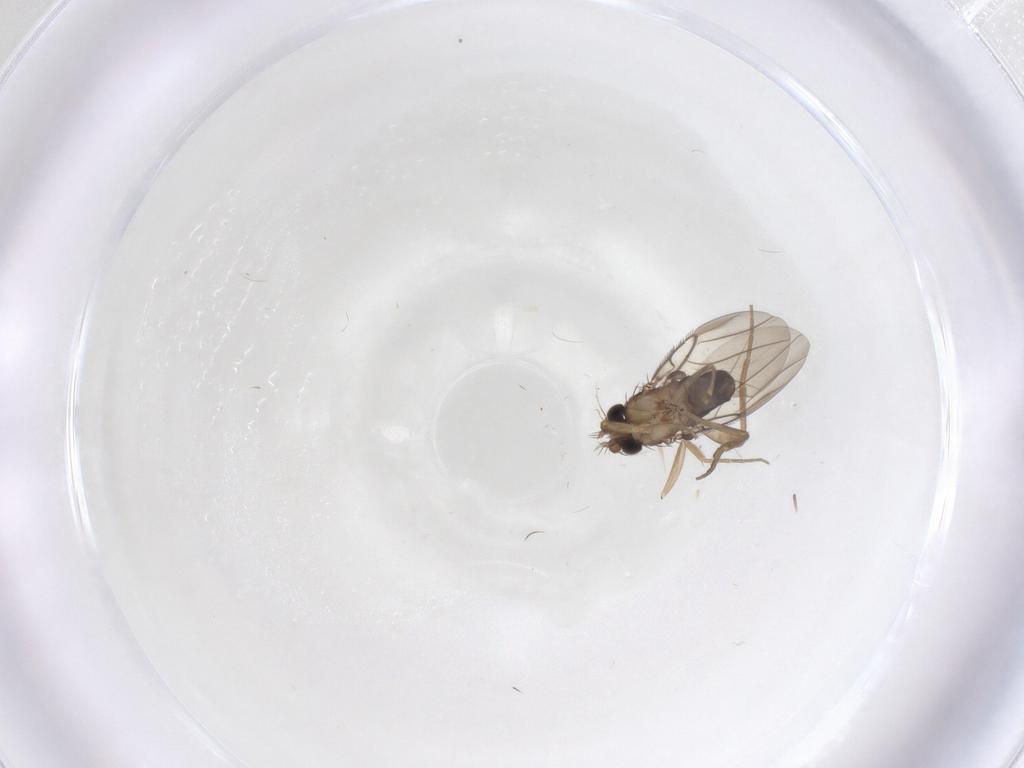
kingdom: Animalia
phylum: Arthropoda
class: Insecta
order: Diptera
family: Phoridae
